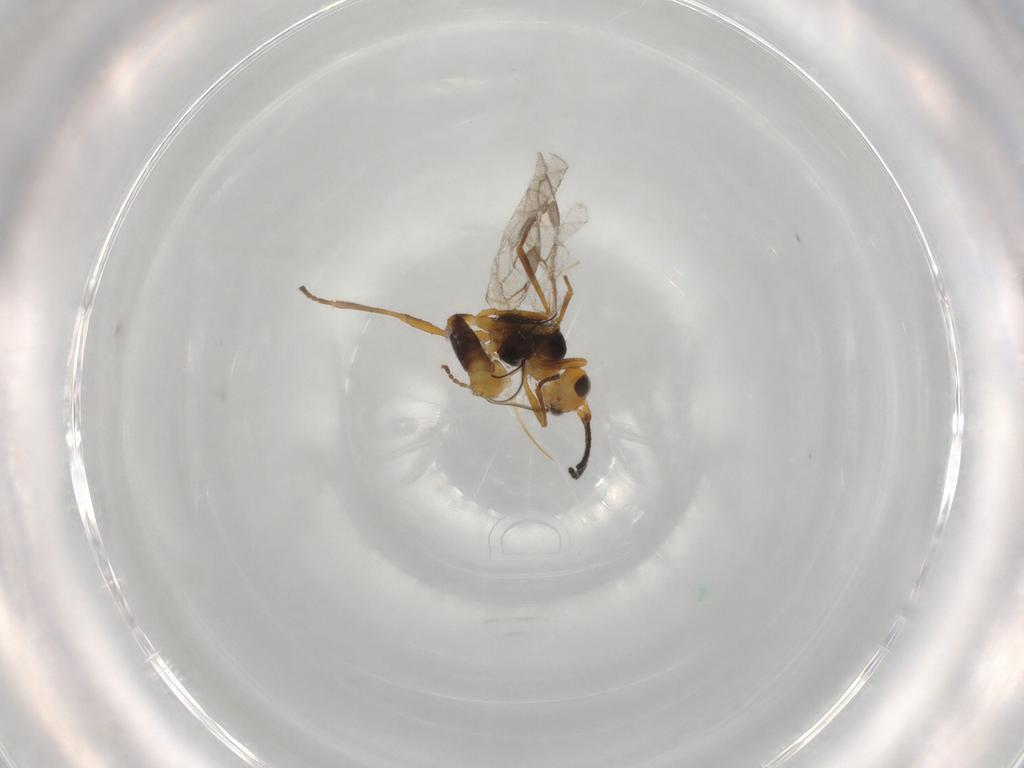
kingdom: Animalia
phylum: Arthropoda
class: Insecta
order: Hymenoptera
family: Braconidae
